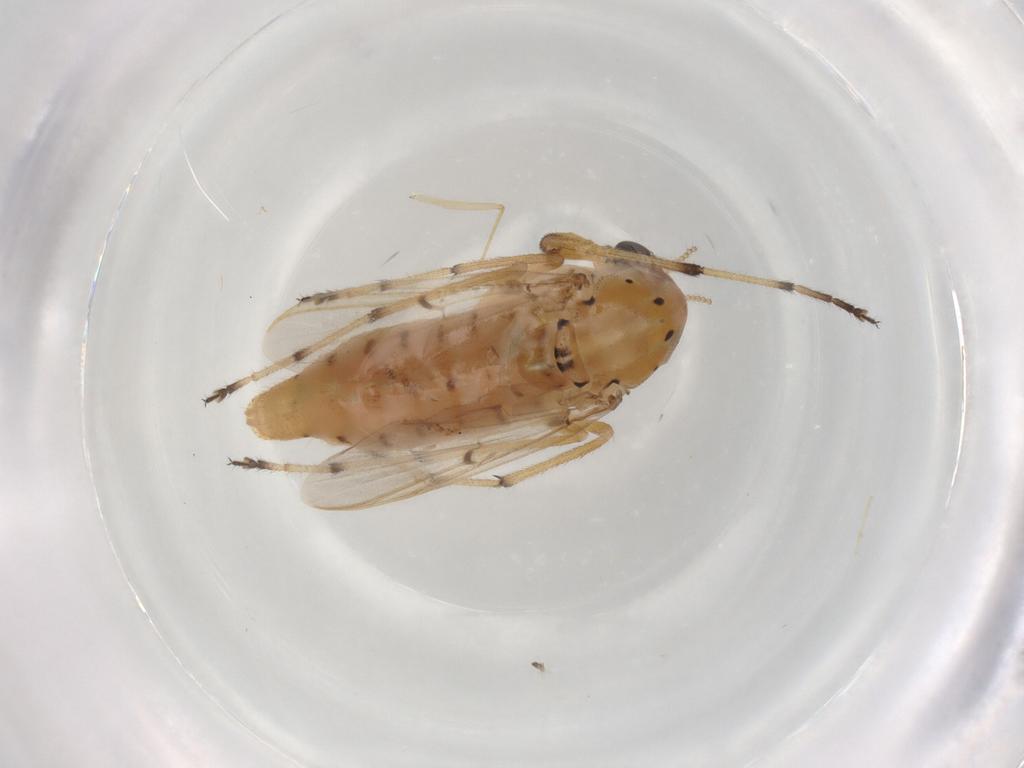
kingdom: Animalia
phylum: Arthropoda
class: Insecta
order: Diptera
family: Chironomidae
